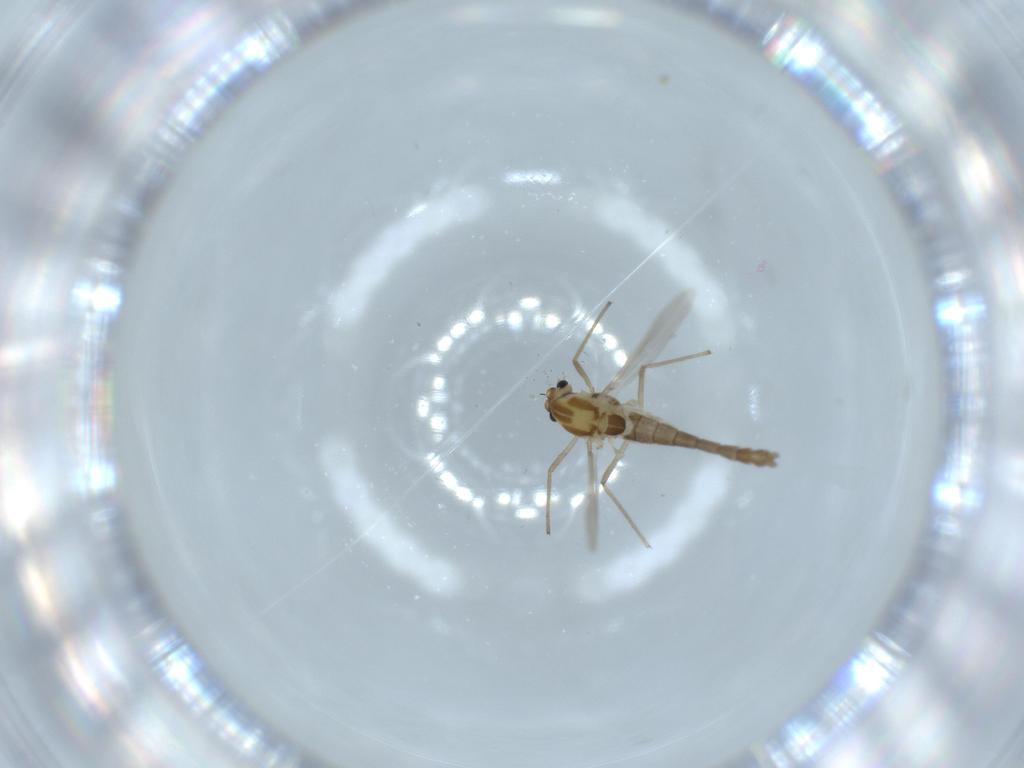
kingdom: Animalia
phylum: Arthropoda
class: Insecta
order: Diptera
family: Chironomidae
